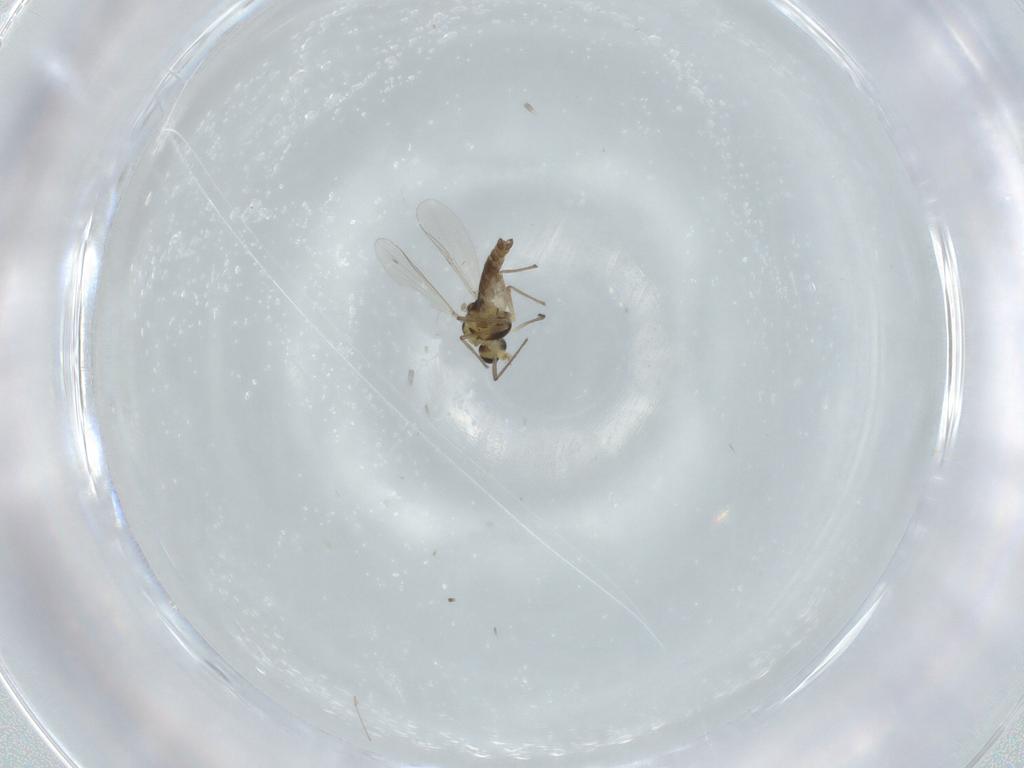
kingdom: Animalia
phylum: Arthropoda
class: Insecta
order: Diptera
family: Chironomidae
